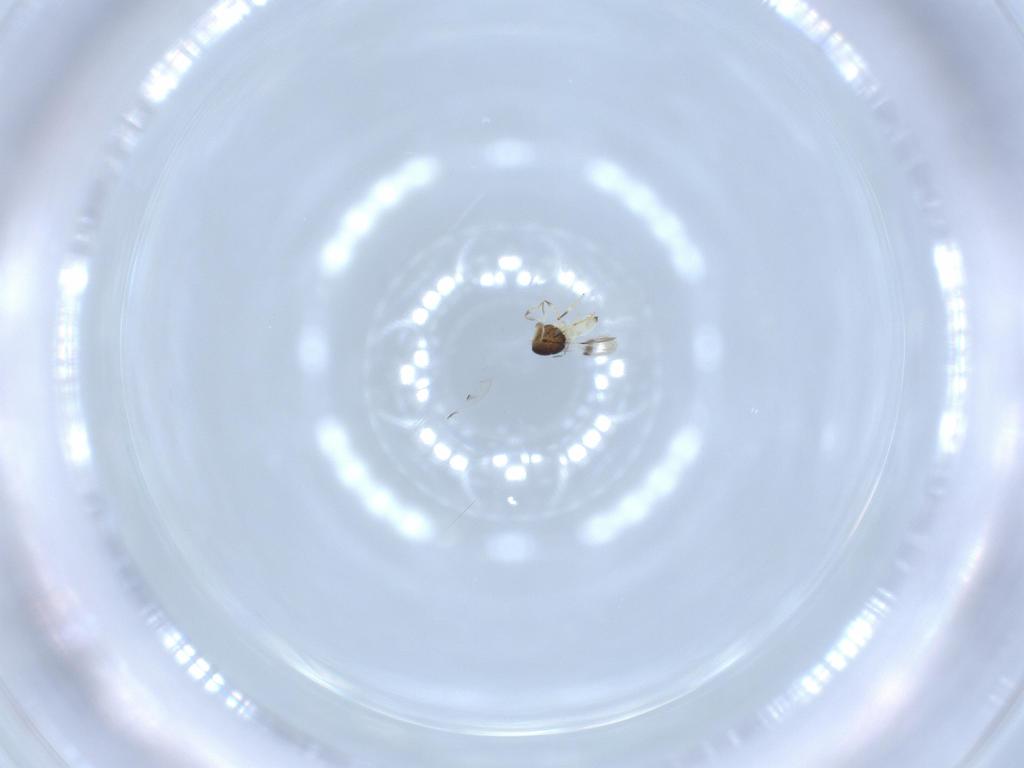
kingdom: Animalia
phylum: Arthropoda
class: Insecta
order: Hymenoptera
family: Scelionidae
